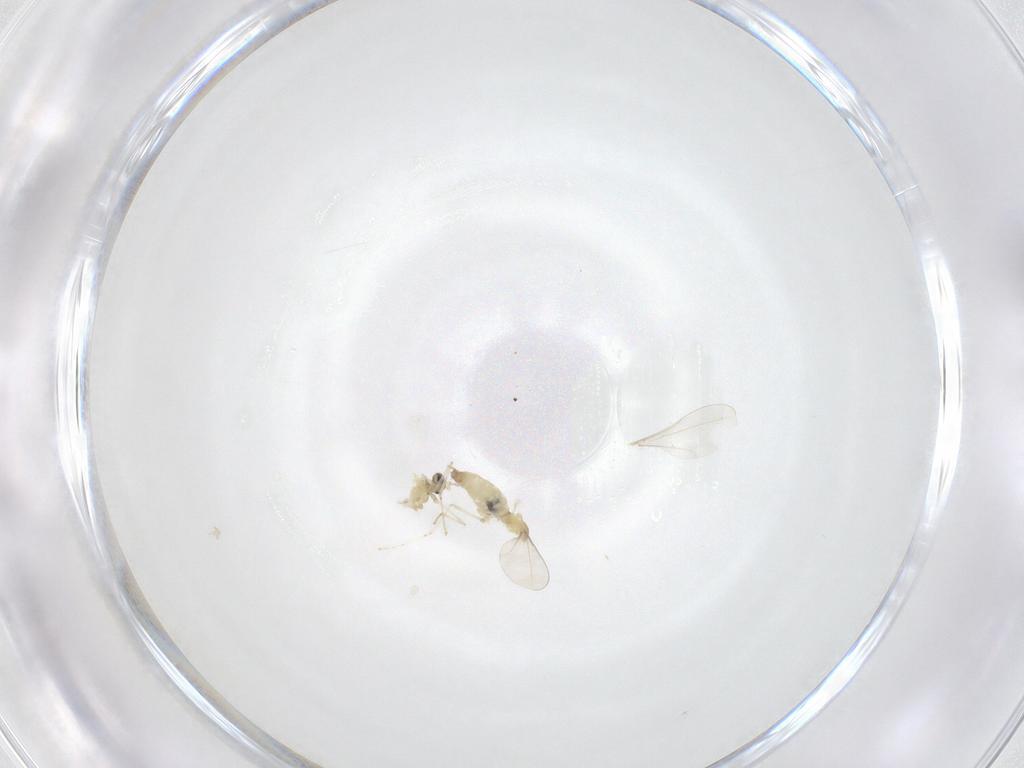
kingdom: Animalia
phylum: Arthropoda
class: Insecta
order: Diptera
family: Cecidomyiidae
